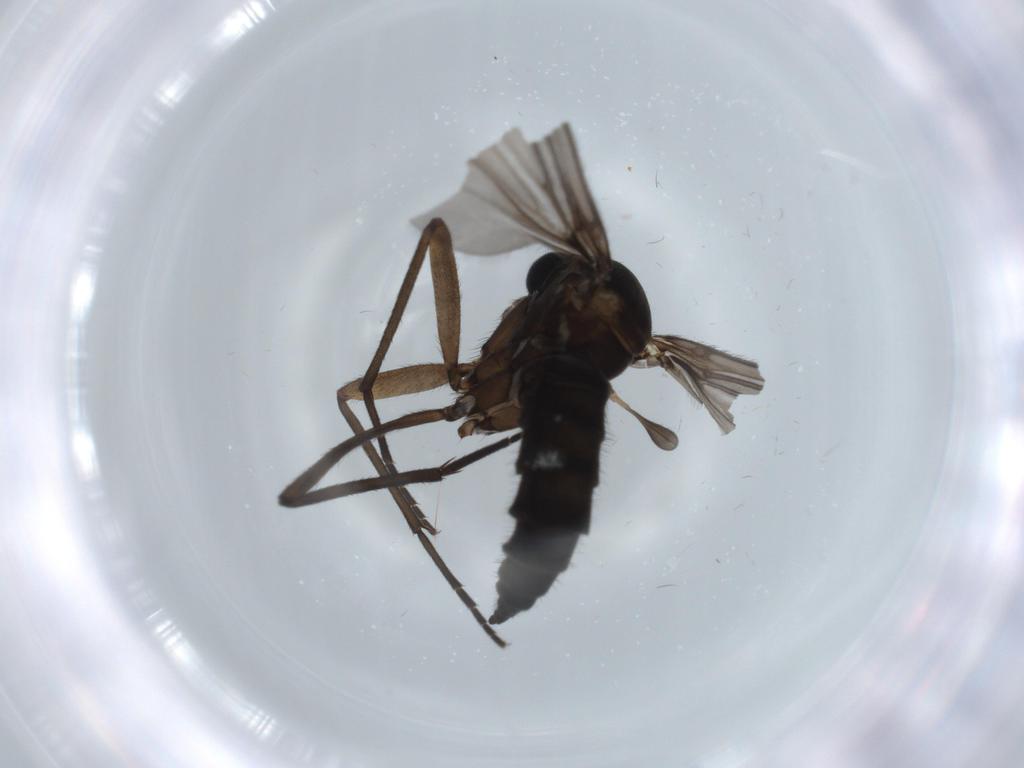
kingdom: Animalia
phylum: Arthropoda
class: Insecta
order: Diptera
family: Sciaridae
